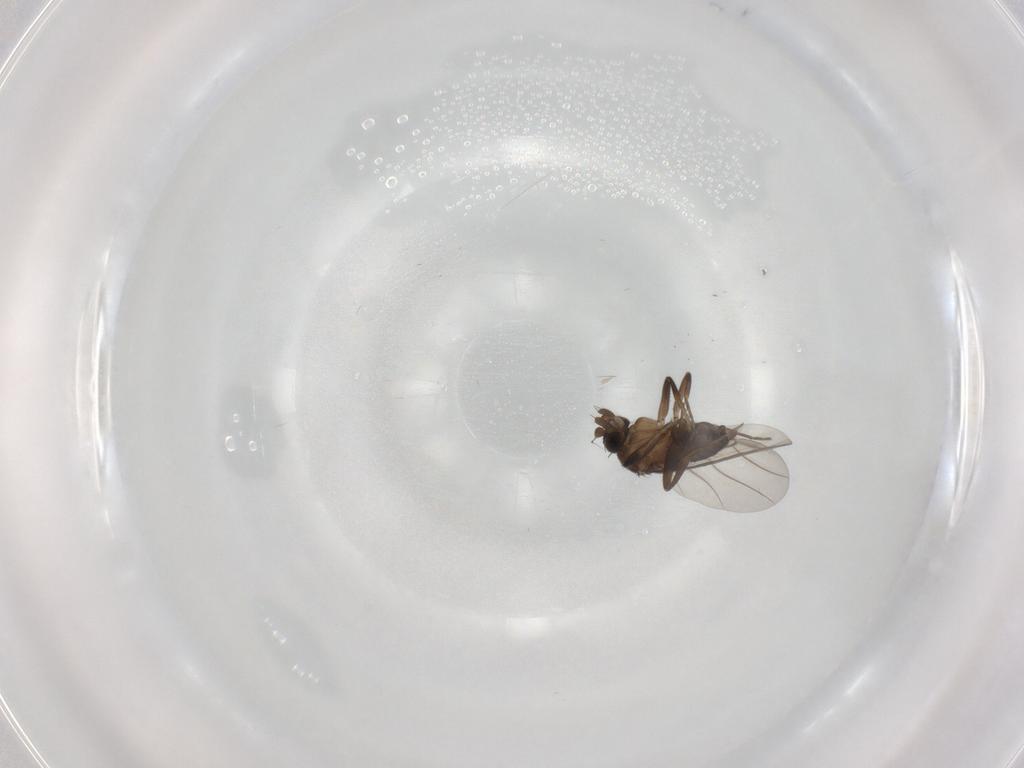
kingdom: Animalia
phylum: Arthropoda
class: Insecta
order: Diptera
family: Phoridae
